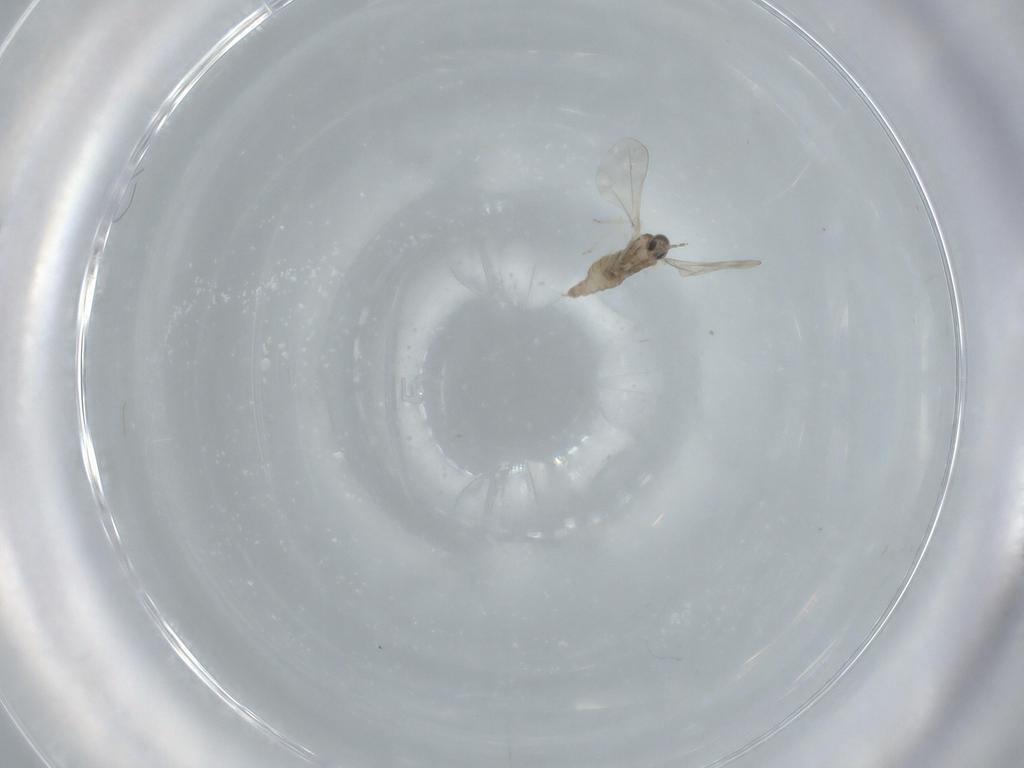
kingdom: Animalia
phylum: Arthropoda
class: Insecta
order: Diptera
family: Cecidomyiidae
